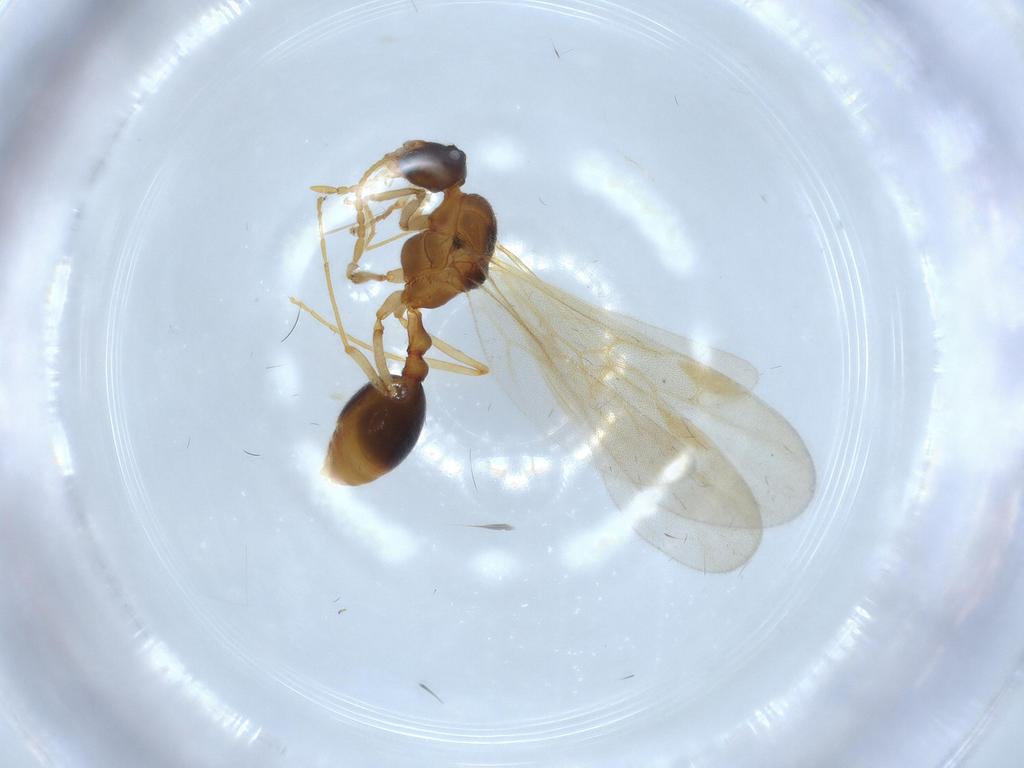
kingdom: Animalia
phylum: Arthropoda
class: Insecta
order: Hymenoptera
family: Formicidae
